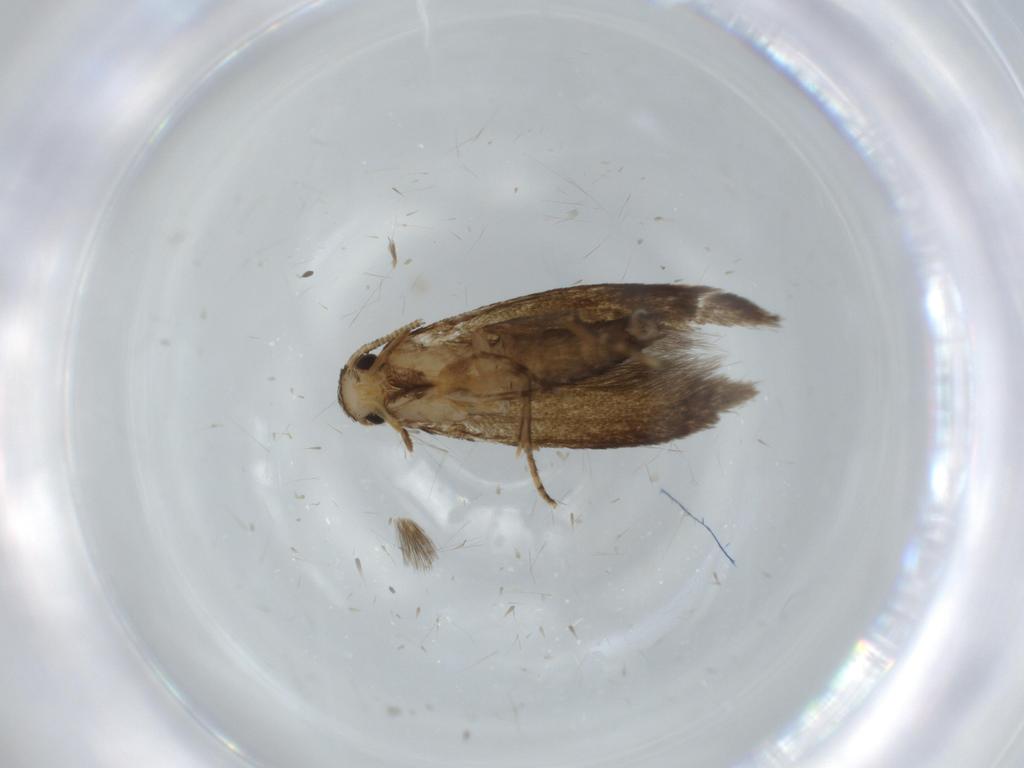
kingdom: Animalia
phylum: Arthropoda
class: Insecta
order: Lepidoptera
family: Tineidae
